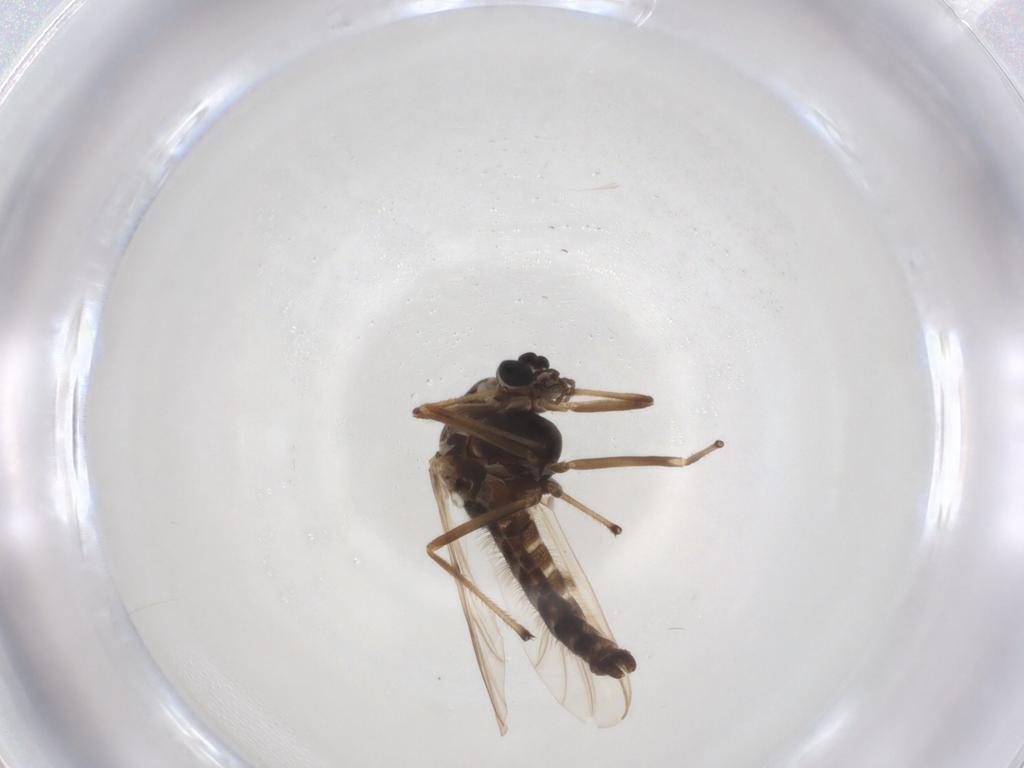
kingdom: Animalia
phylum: Arthropoda
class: Insecta
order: Diptera
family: Chironomidae
